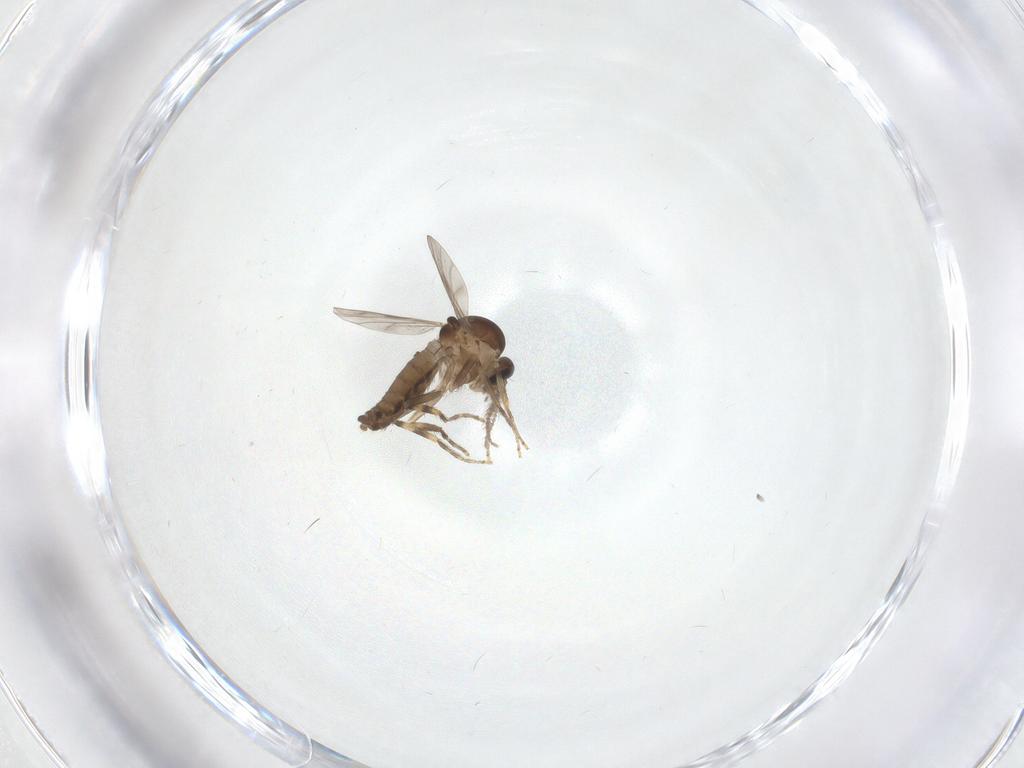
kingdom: Animalia
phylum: Arthropoda
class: Insecta
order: Diptera
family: Ceratopogonidae
